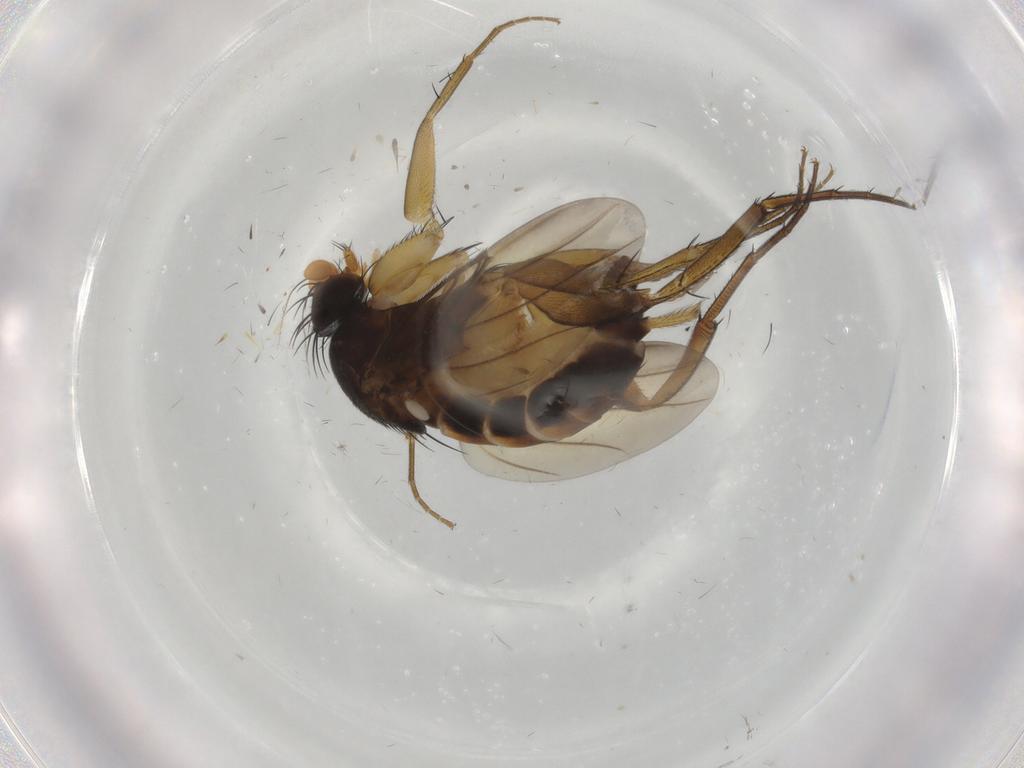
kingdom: Animalia
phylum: Arthropoda
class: Insecta
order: Diptera
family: Phoridae
